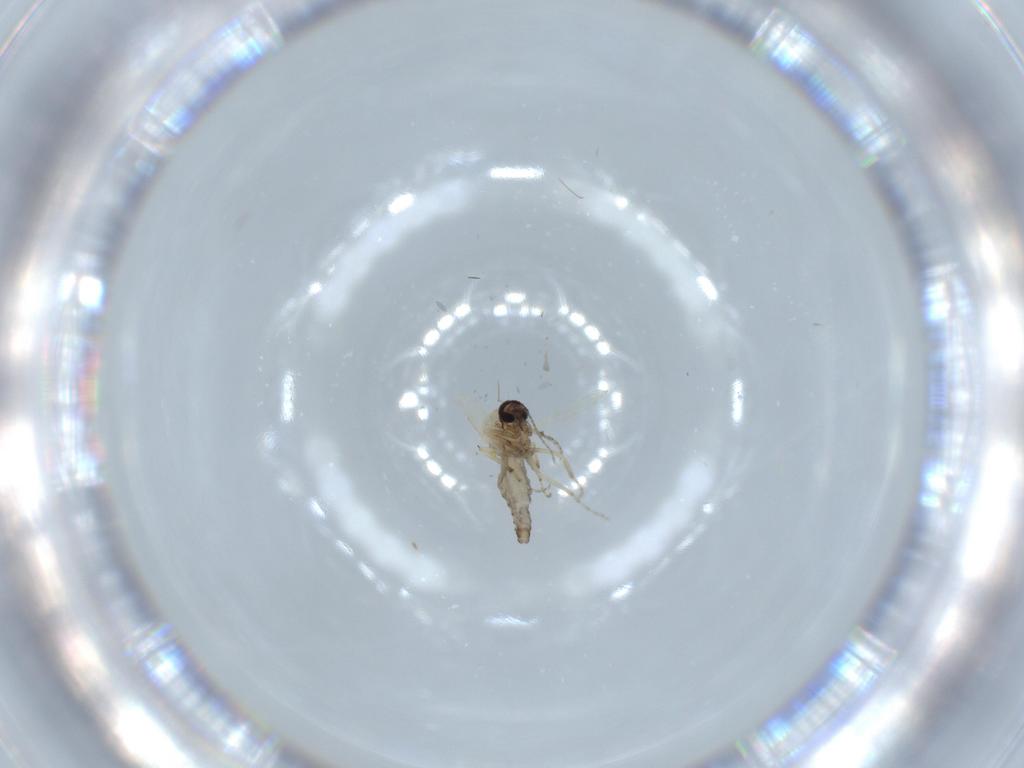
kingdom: Animalia
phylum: Arthropoda
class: Insecta
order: Diptera
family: Ceratopogonidae
